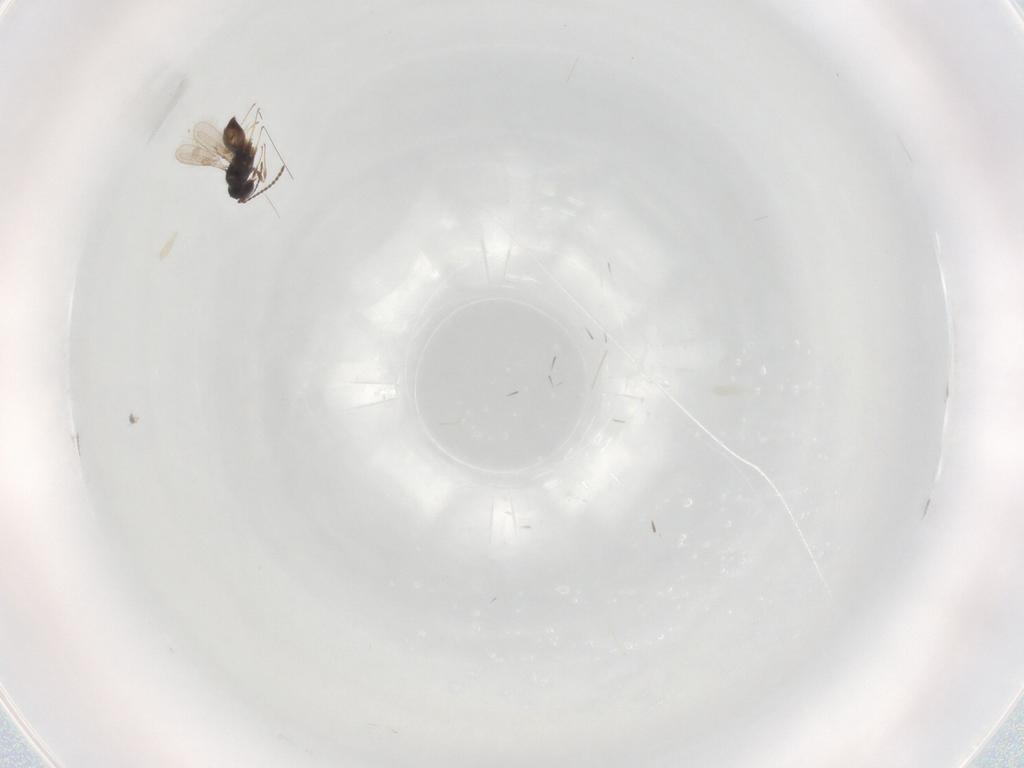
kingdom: Animalia
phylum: Arthropoda
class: Insecta
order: Hymenoptera
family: Scelionidae
